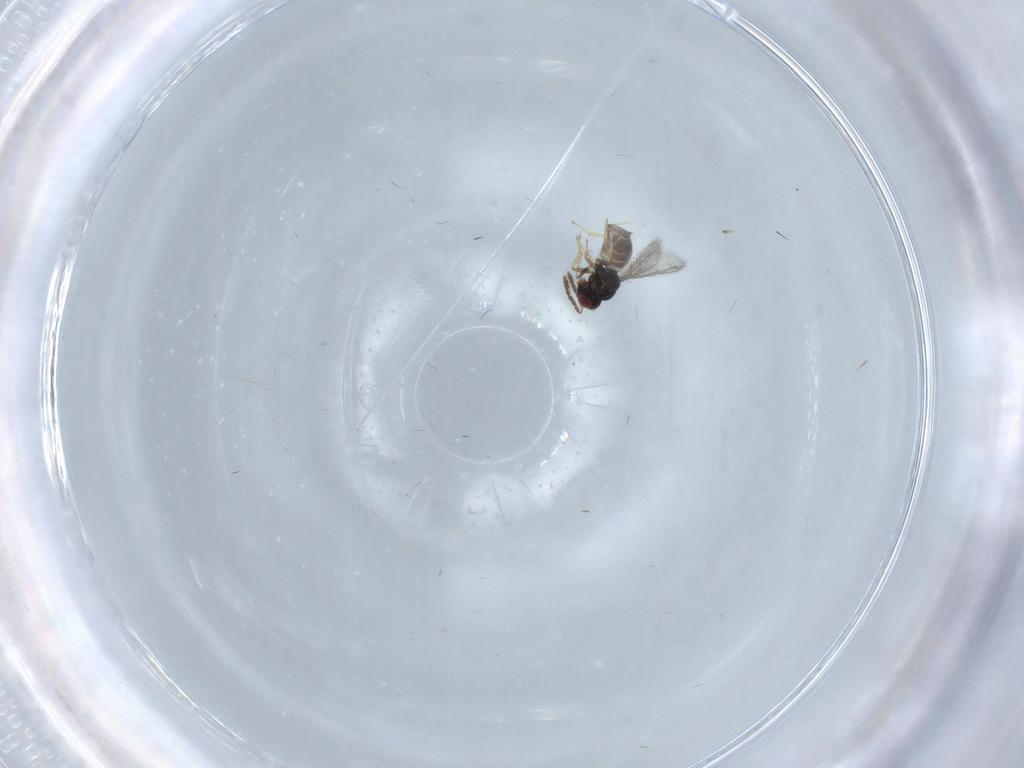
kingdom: Animalia
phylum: Arthropoda
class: Insecta
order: Hymenoptera
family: Eulophidae
